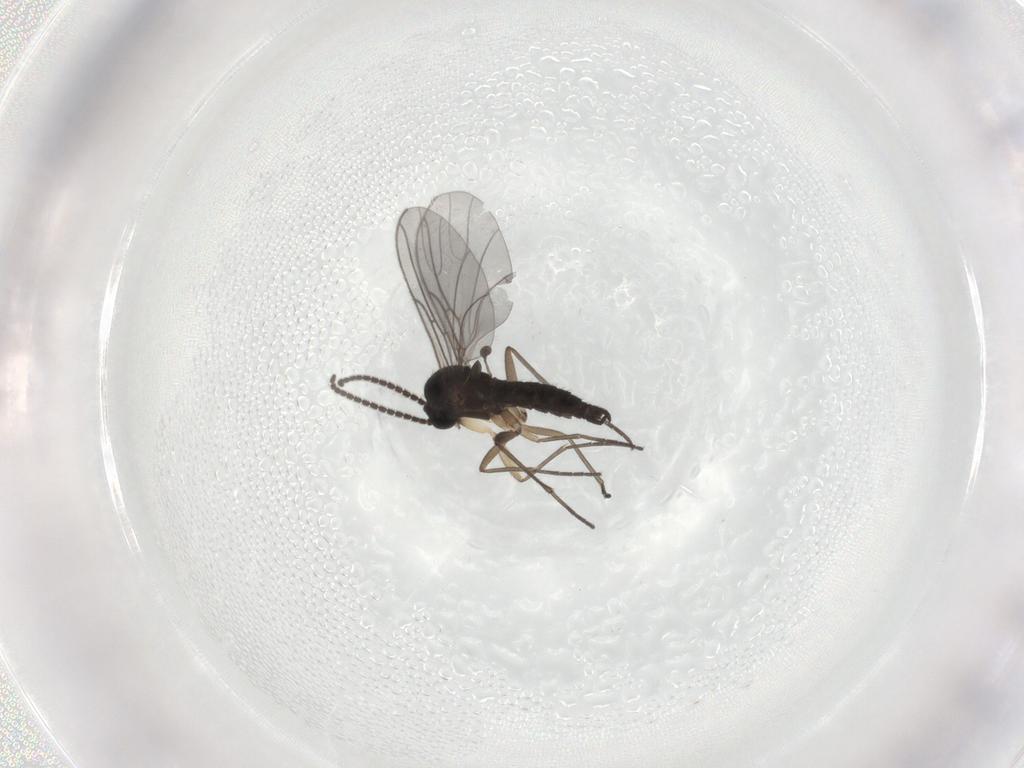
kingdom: Animalia
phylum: Arthropoda
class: Insecta
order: Diptera
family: Sciaridae
